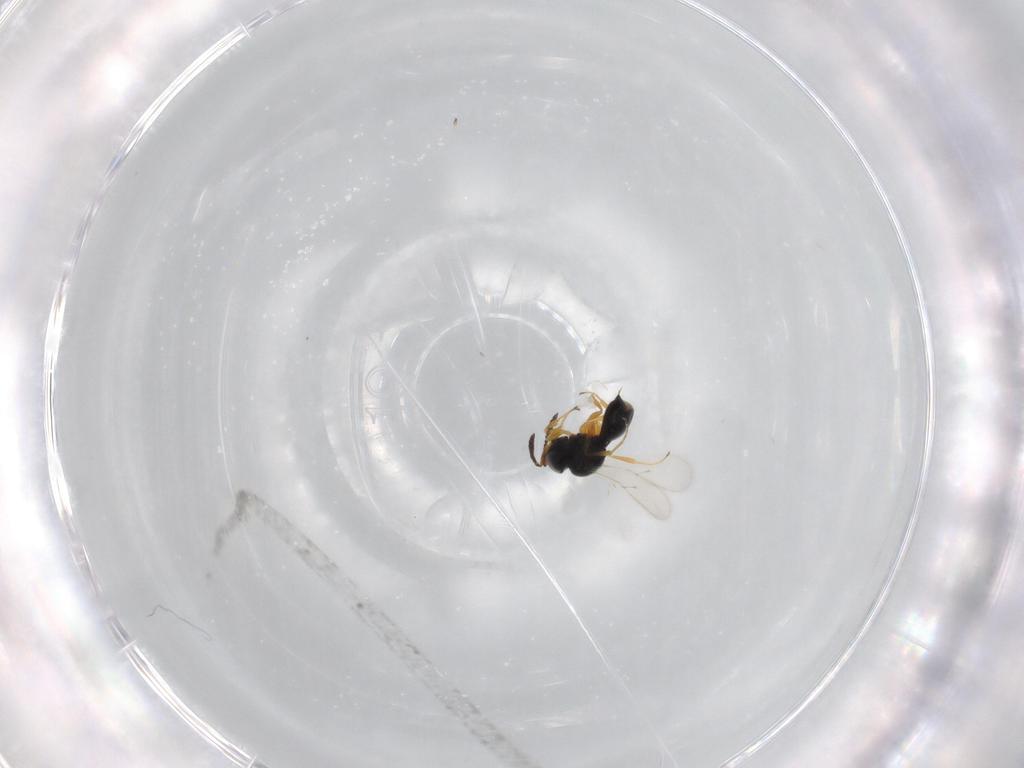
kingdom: Animalia
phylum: Arthropoda
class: Insecta
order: Hymenoptera
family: Scelionidae
